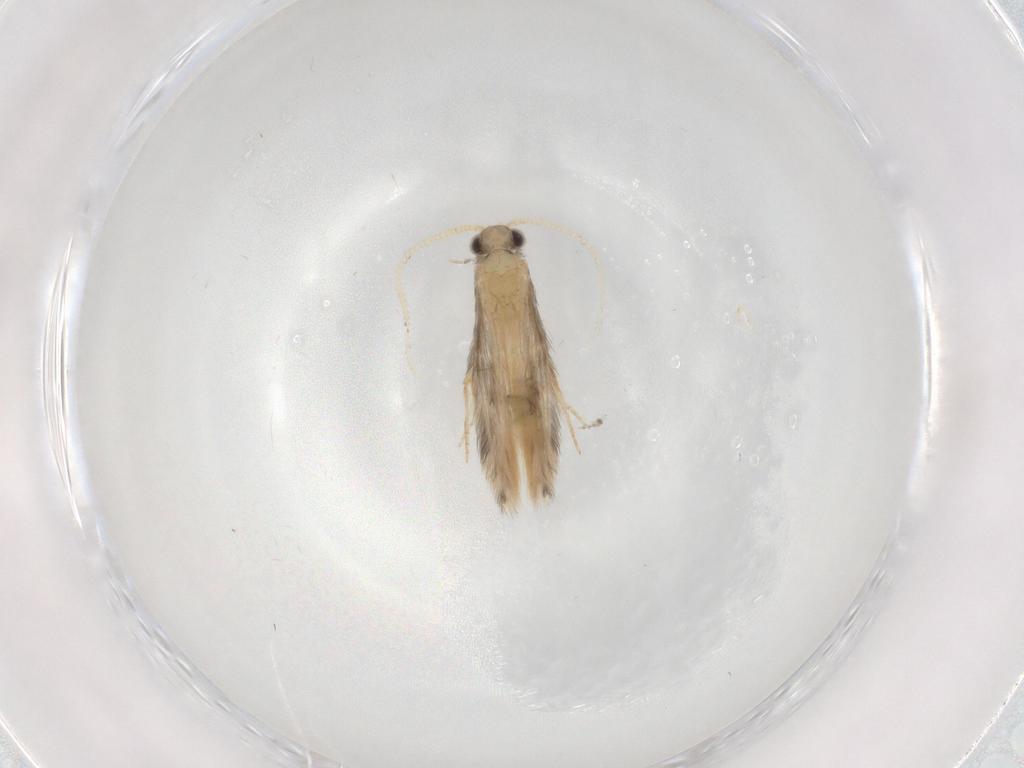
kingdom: Animalia
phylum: Arthropoda
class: Insecta
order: Trichoptera
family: Hydroptilidae
